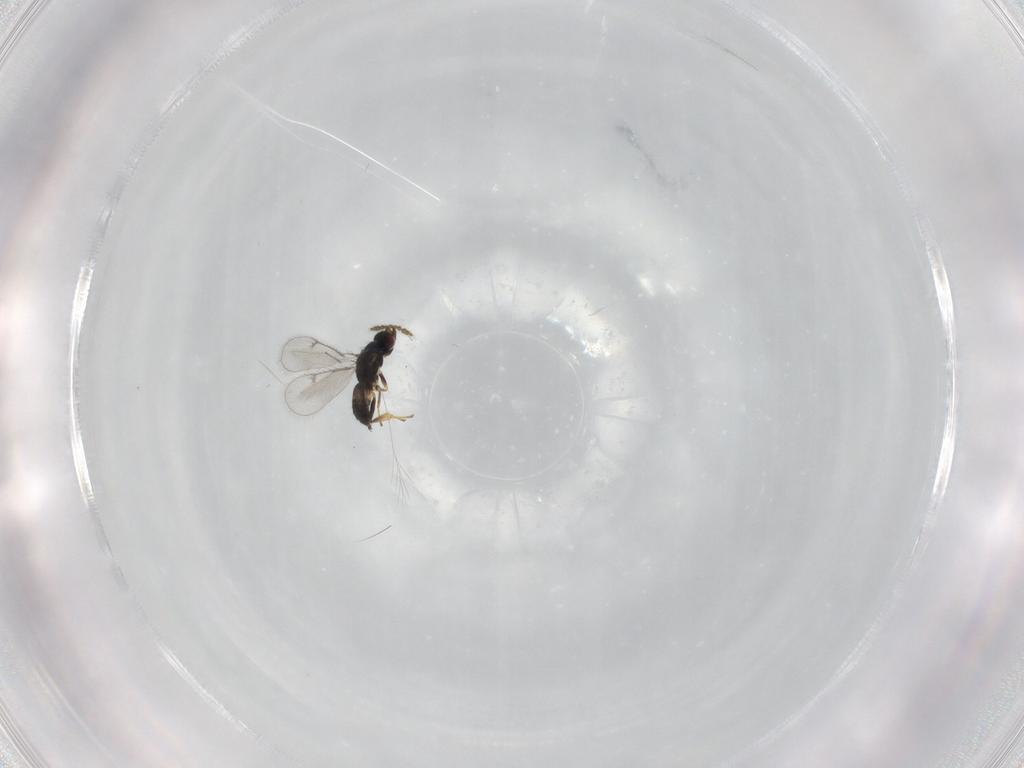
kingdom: Animalia
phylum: Arthropoda
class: Insecta
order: Hymenoptera
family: Eulophidae
